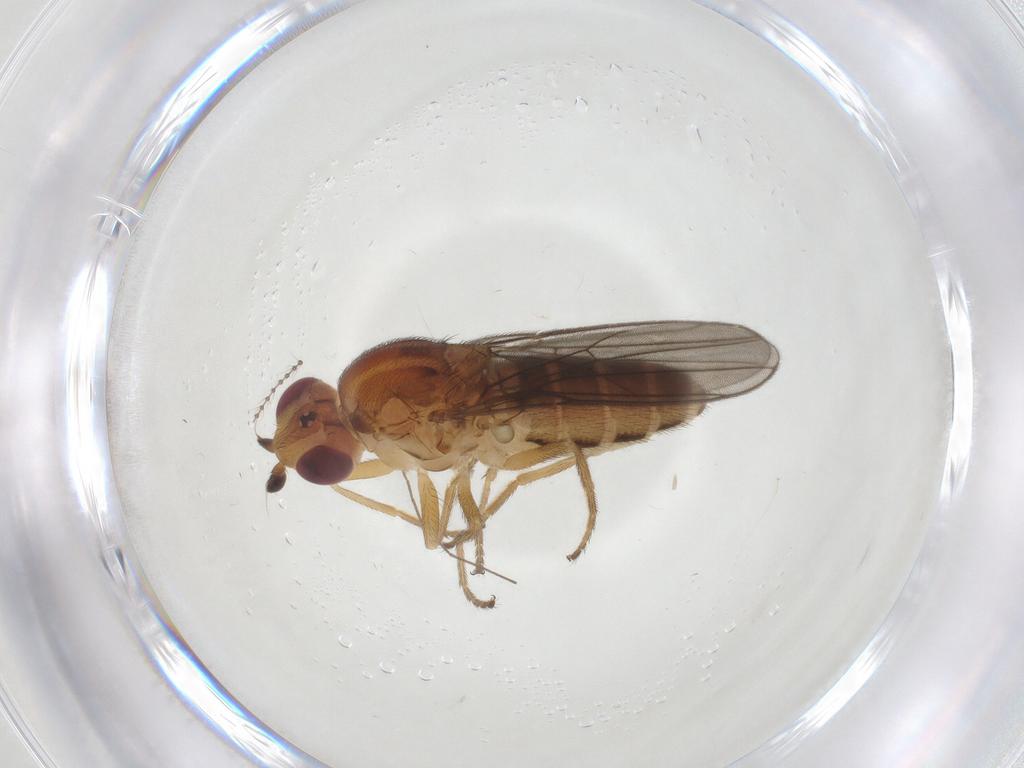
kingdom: Animalia
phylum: Arthropoda
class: Insecta
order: Diptera
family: Chloropidae
